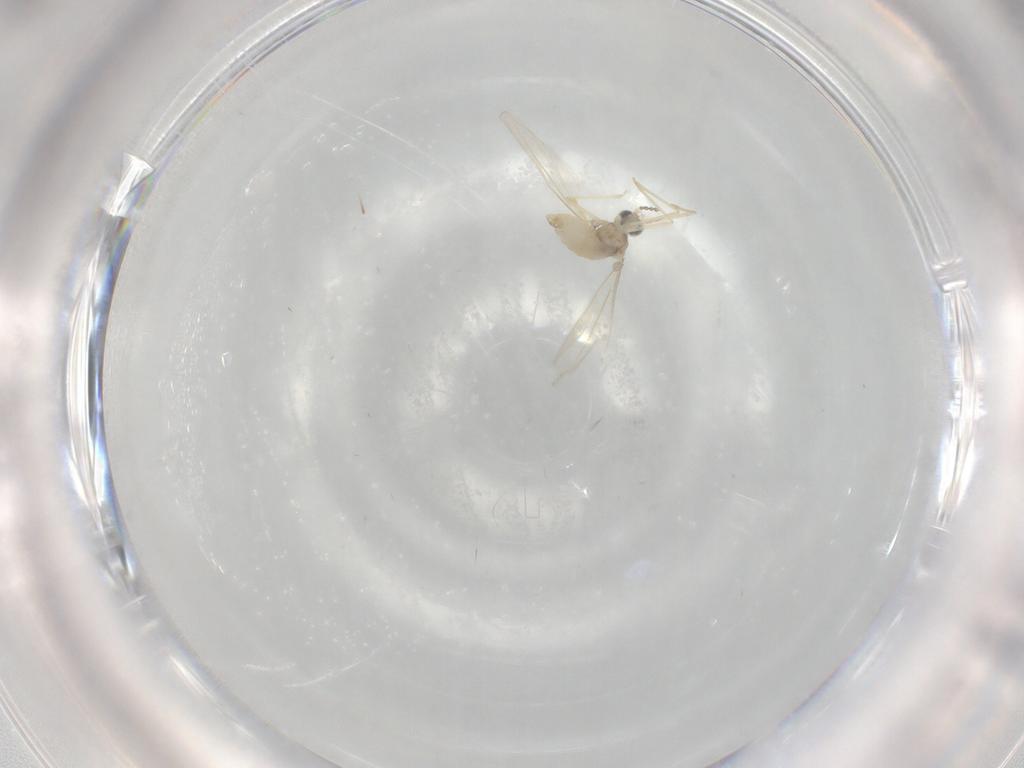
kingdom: Animalia
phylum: Arthropoda
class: Insecta
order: Diptera
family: Cecidomyiidae
